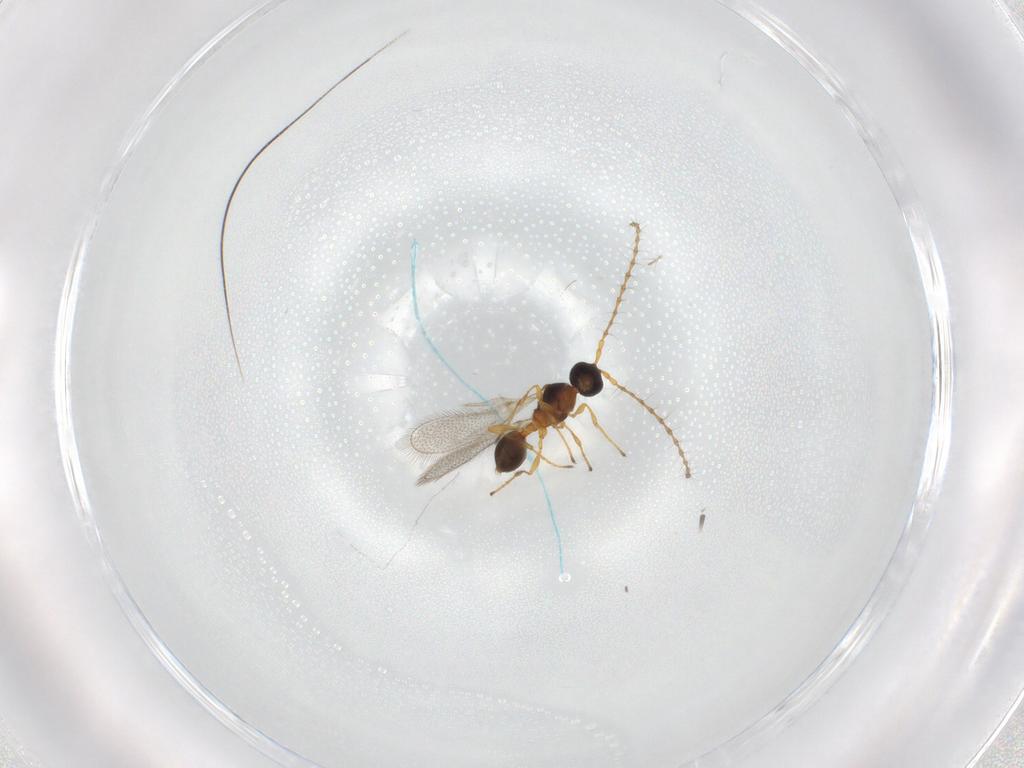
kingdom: Animalia
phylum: Arthropoda
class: Insecta
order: Hymenoptera
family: Diapriidae
